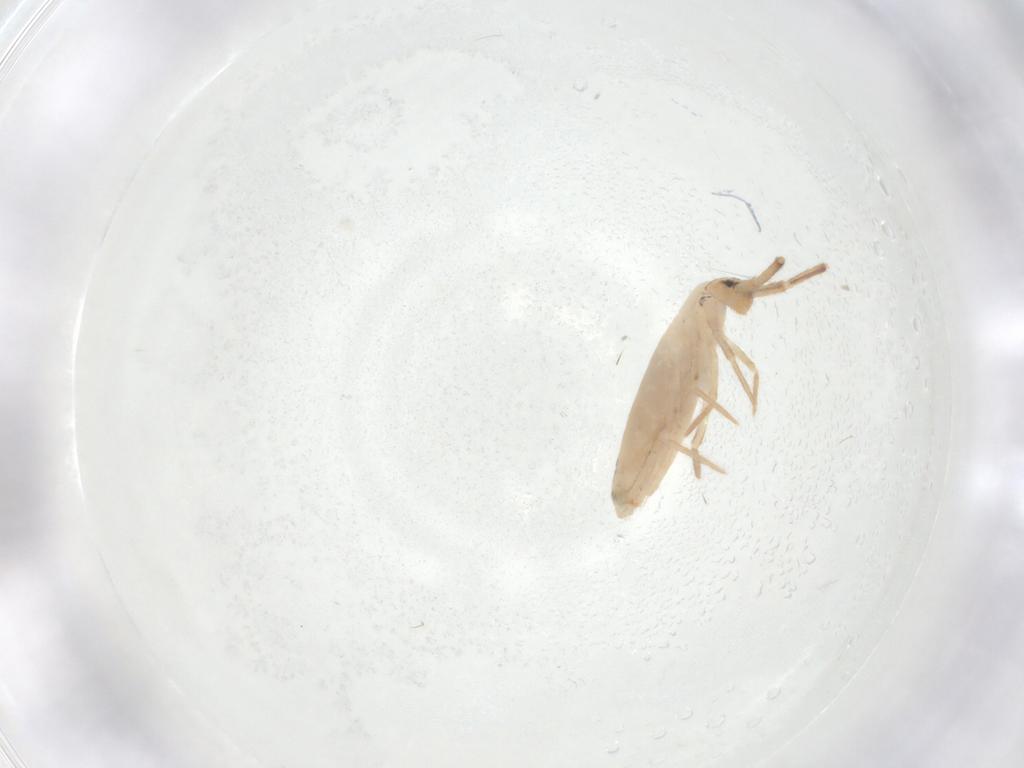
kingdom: Animalia
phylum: Arthropoda
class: Collembola
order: Entomobryomorpha
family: Entomobryidae
